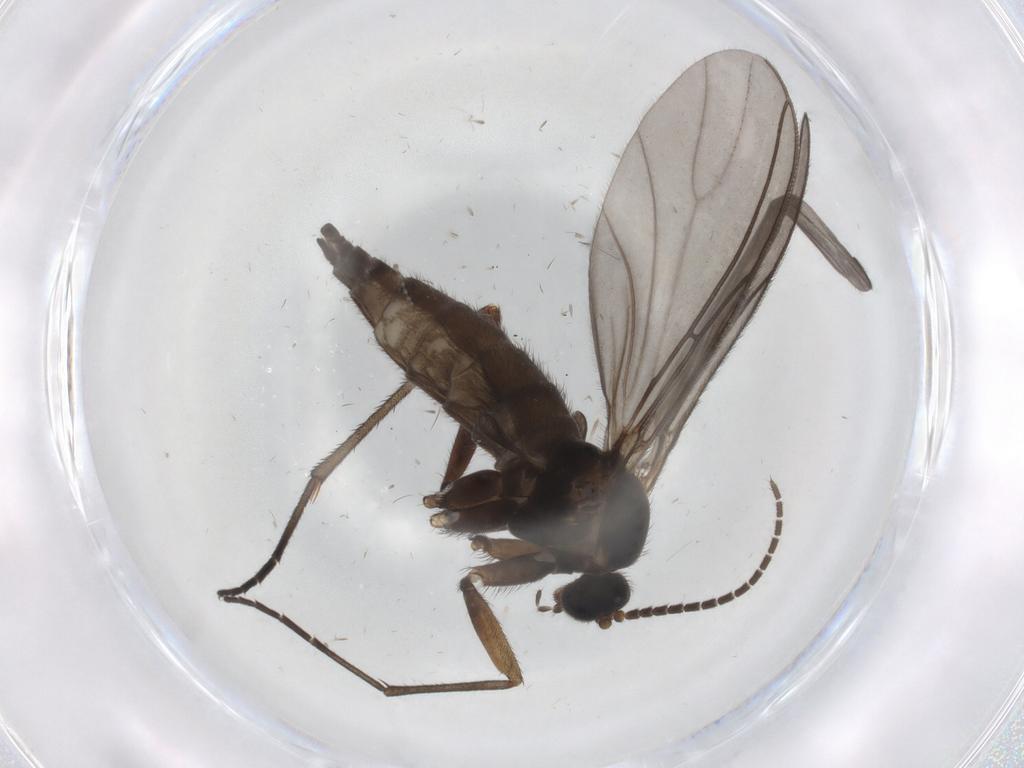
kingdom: Animalia
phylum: Arthropoda
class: Insecta
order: Diptera
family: Sciaridae
